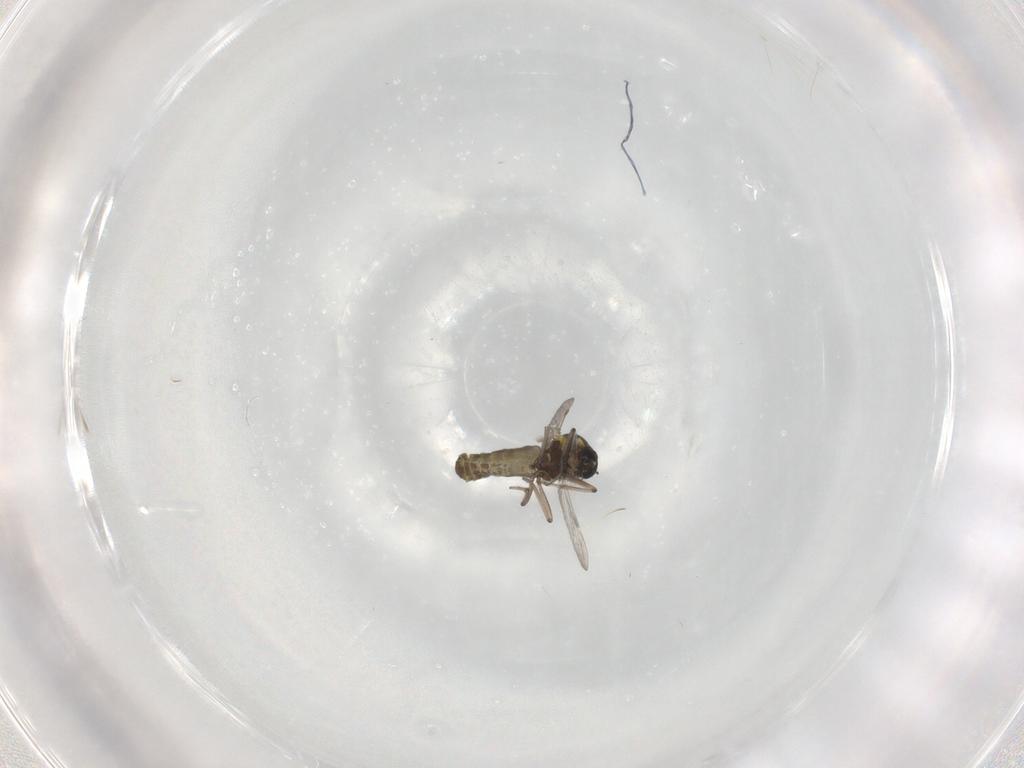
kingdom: Animalia
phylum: Arthropoda
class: Insecta
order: Diptera
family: Ceratopogonidae
